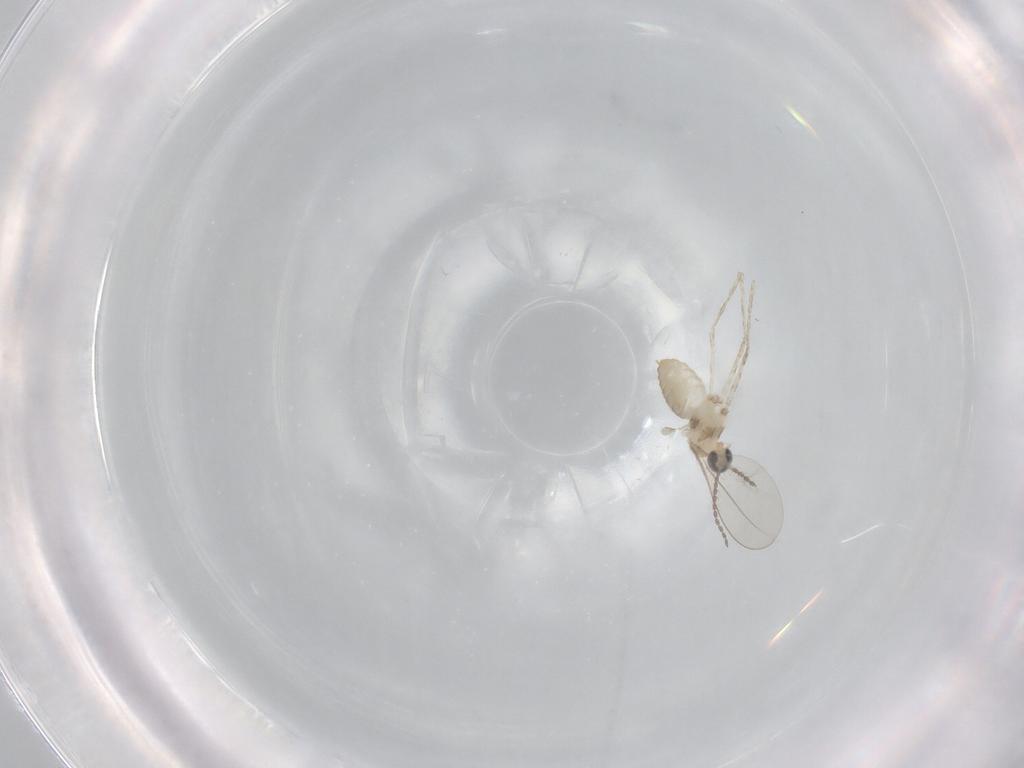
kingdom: Animalia
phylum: Arthropoda
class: Insecta
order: Diptera
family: Cecidomyiidae
